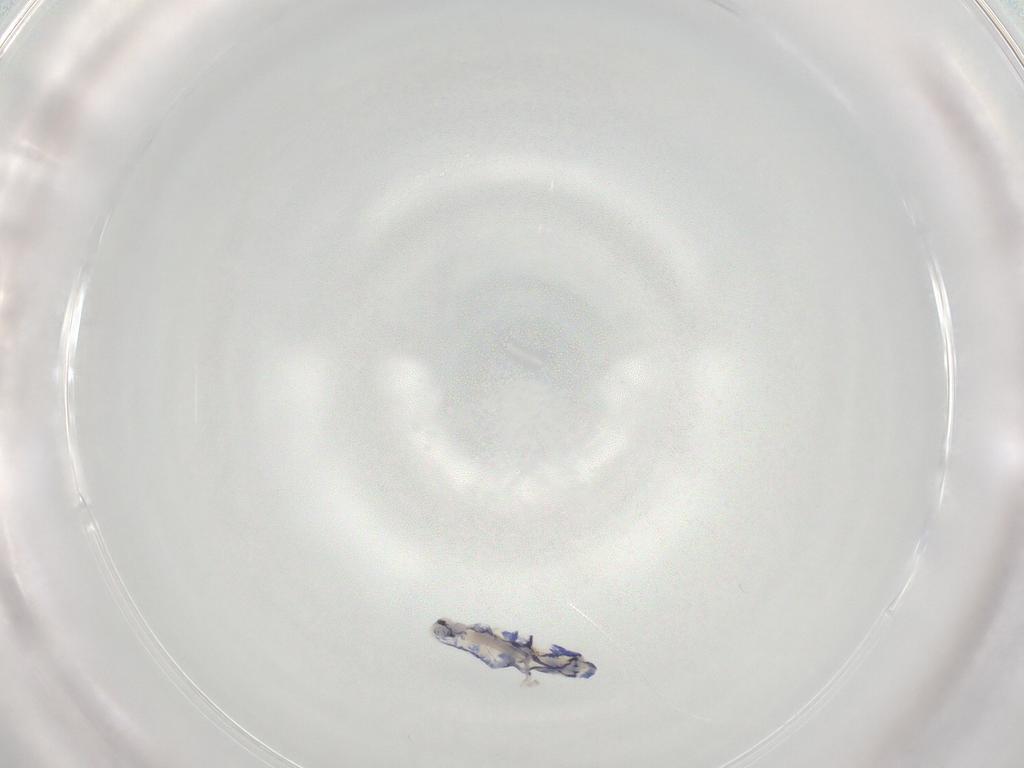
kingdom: Animalia
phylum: Arthropoda
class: Collembola
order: Entomobryomorpha
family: Entomobryidae
